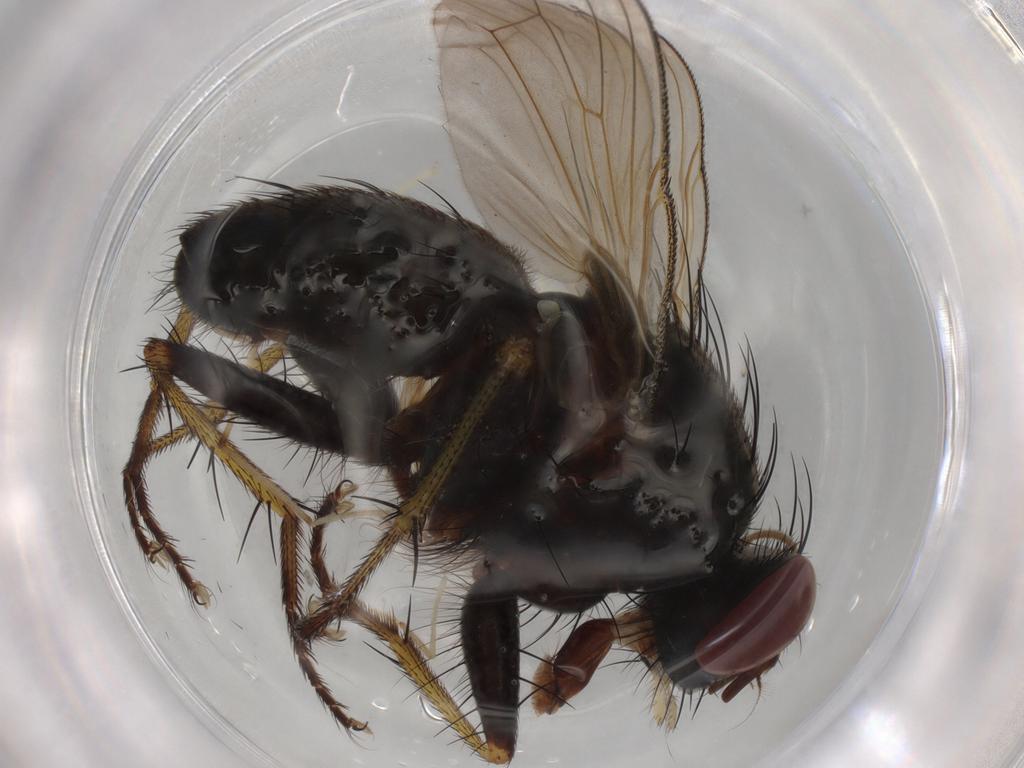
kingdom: Animalia
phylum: Arthropoda
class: Insecta
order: Diptera
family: Muscidae
